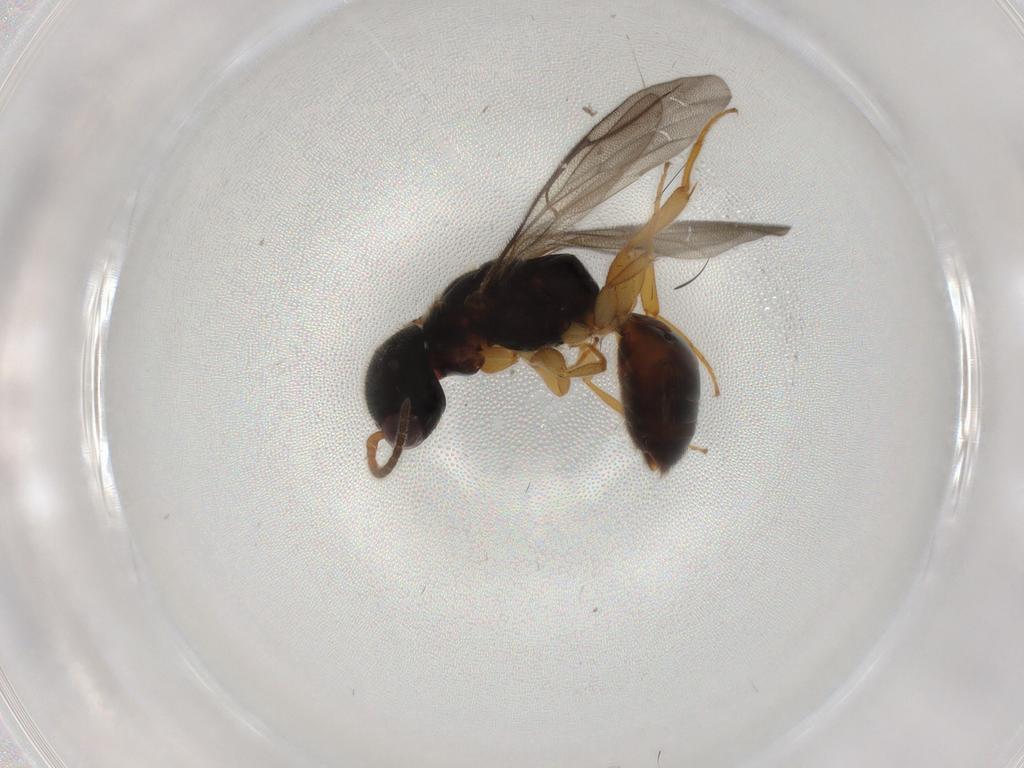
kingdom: Animalia
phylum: Arthropoda
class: Insecta
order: Hymenoptera
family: Bethylidae
